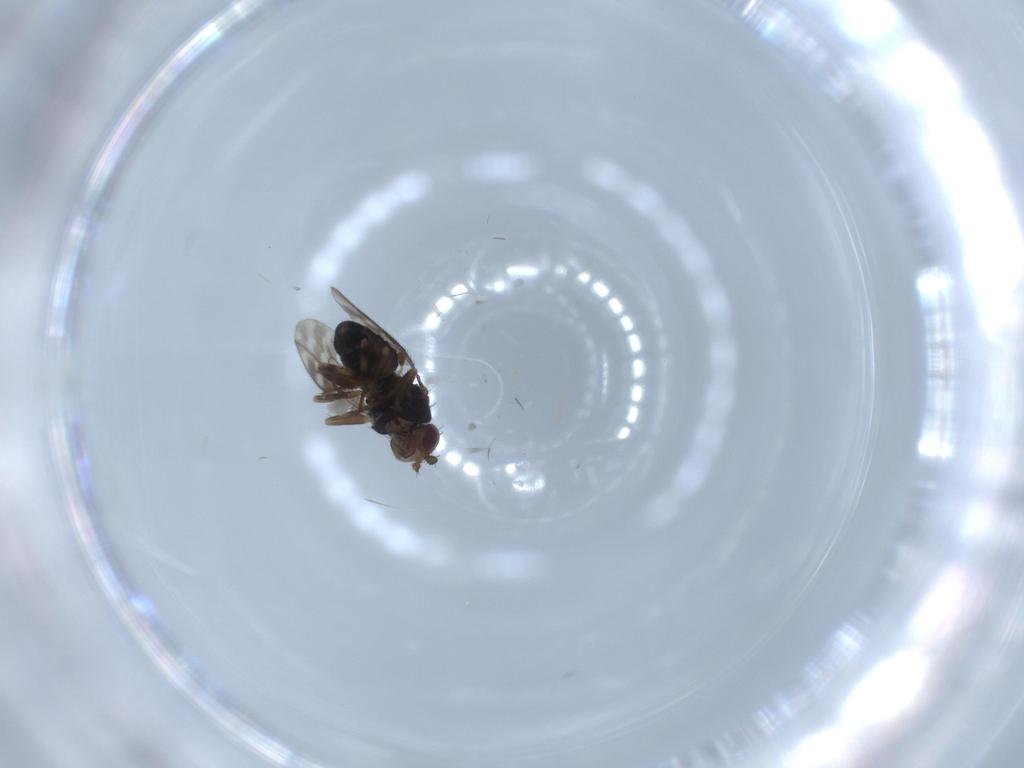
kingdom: Animalia
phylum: Arthropoda
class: Insecta
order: Diptera
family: Sphaeroceridae
